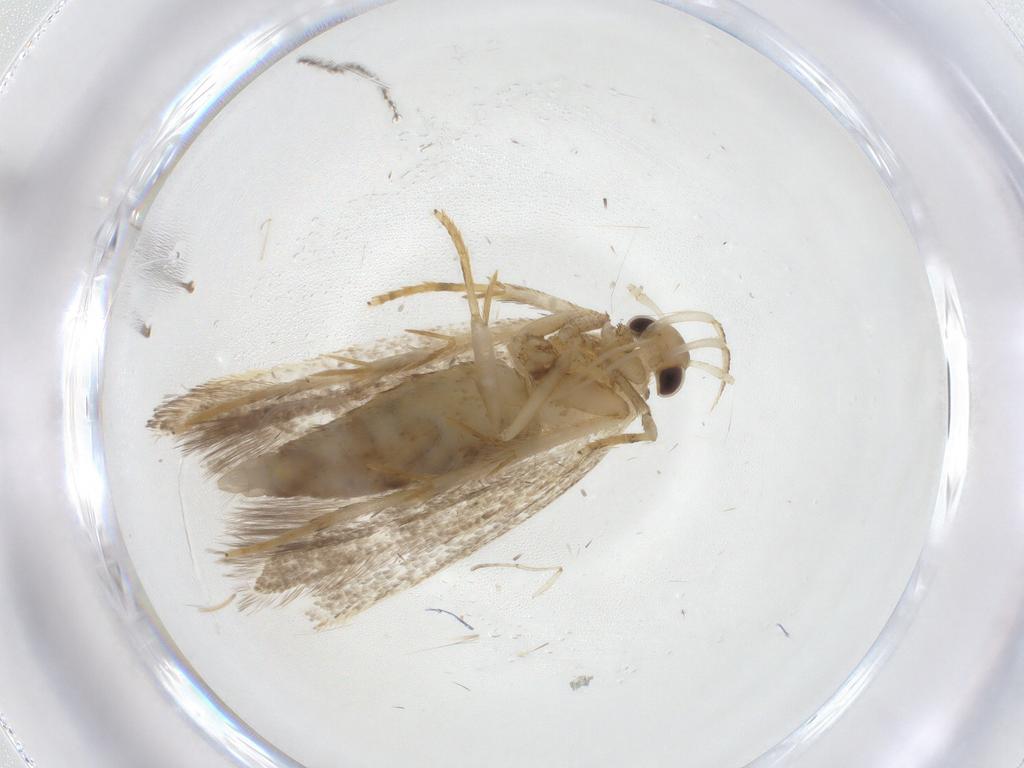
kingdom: Animalia
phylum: Arthropoda
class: Insecta
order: Lepidoptera
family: Lecithoceridae
